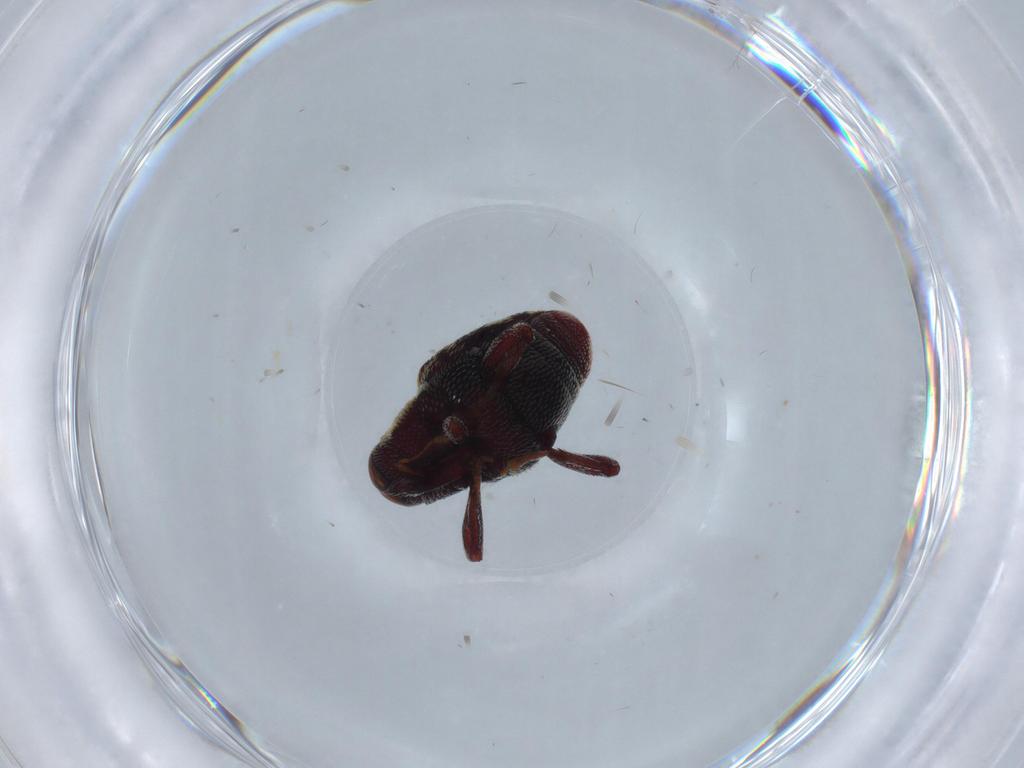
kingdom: Animalia
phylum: Arthropoda
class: Insecta
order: Coleoptera
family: Curculionidae
